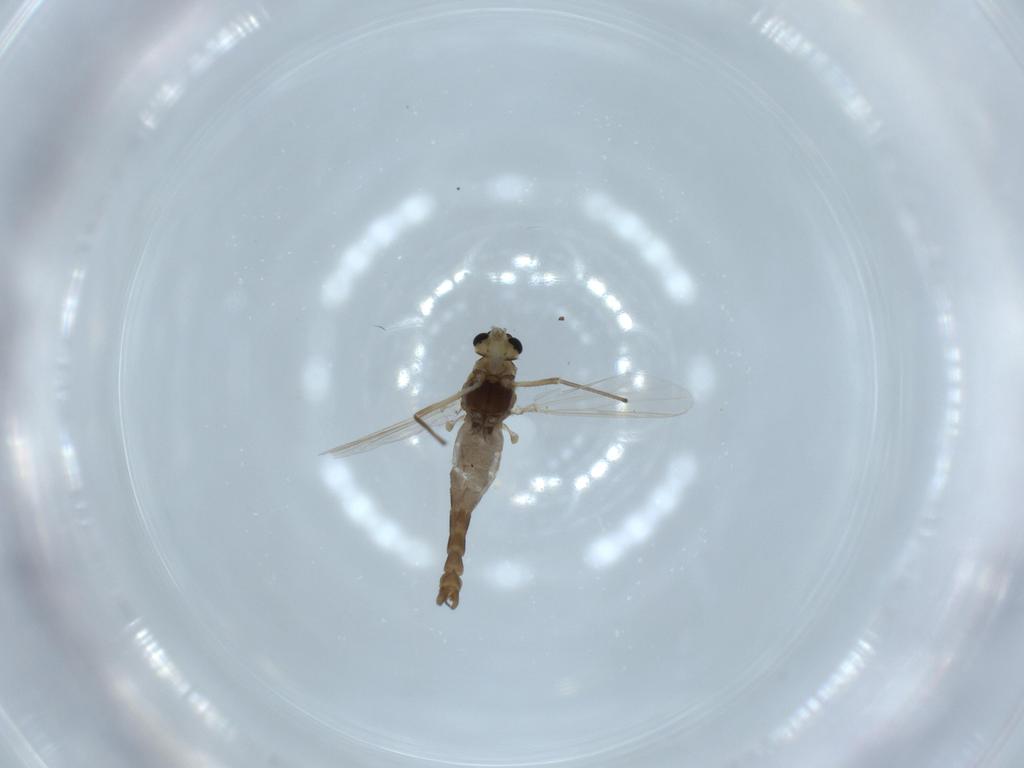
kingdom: Animalia
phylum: Arthropoda
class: Insecta
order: Diptera
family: Chironomidae
